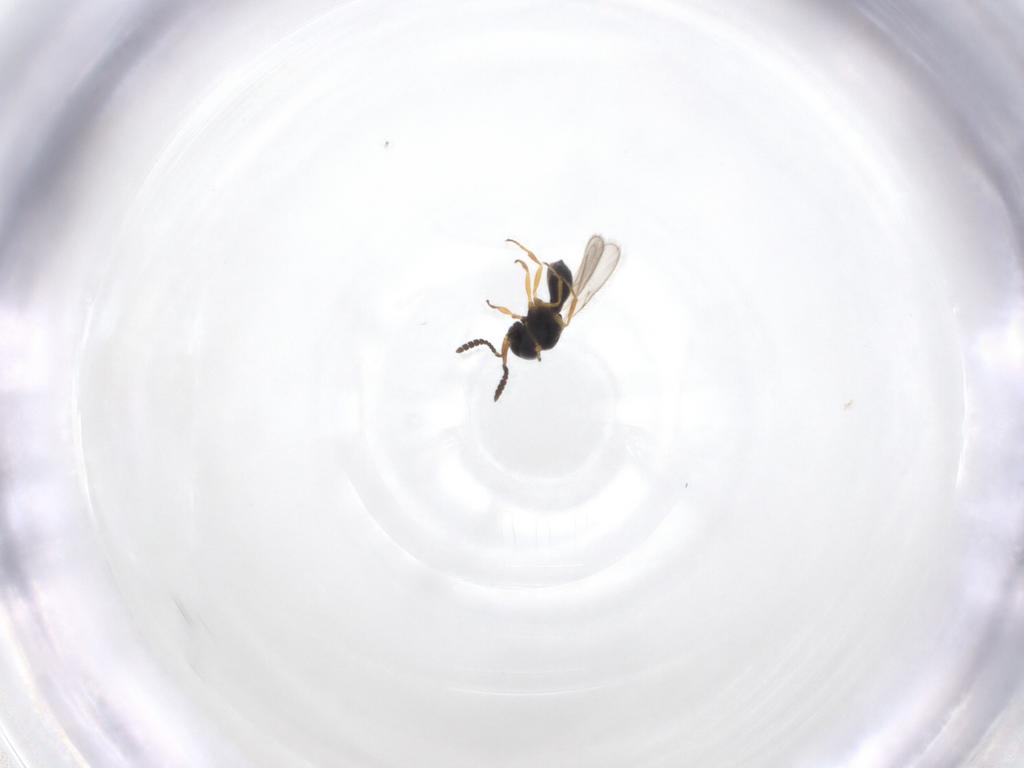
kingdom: Animalia
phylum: Arthropoda
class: Insecta
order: Hymenoptera
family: Scelionidae
